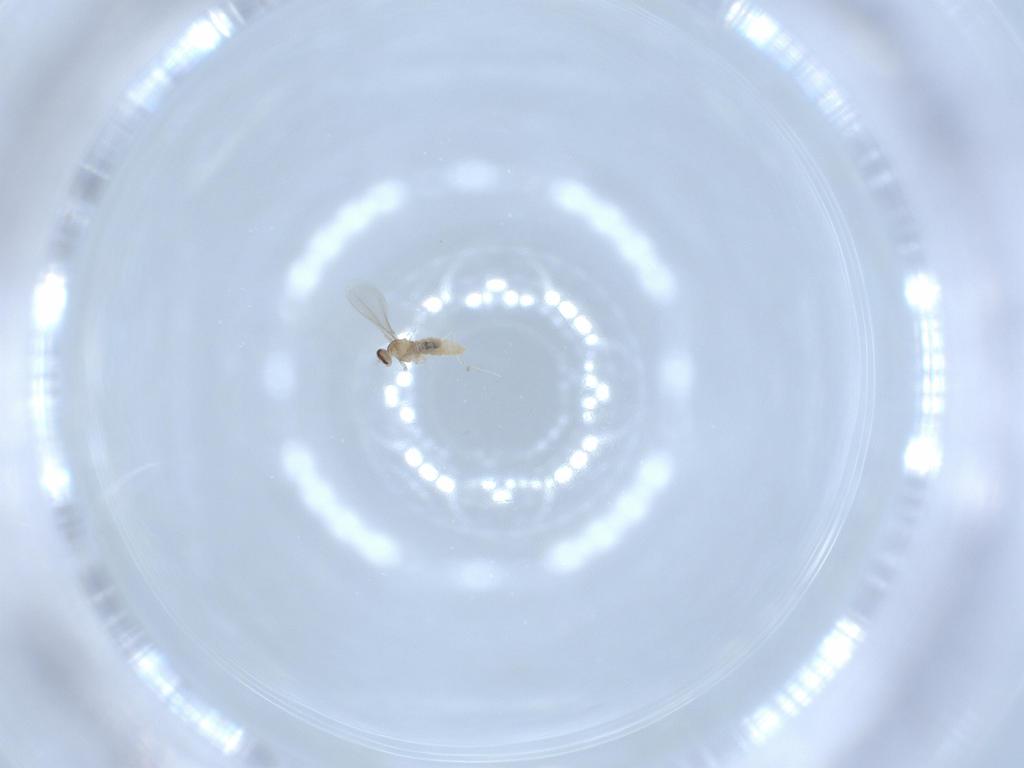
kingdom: Animalia
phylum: Arthropoda
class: Insecta
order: Diptera
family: Cecidomyiidae
